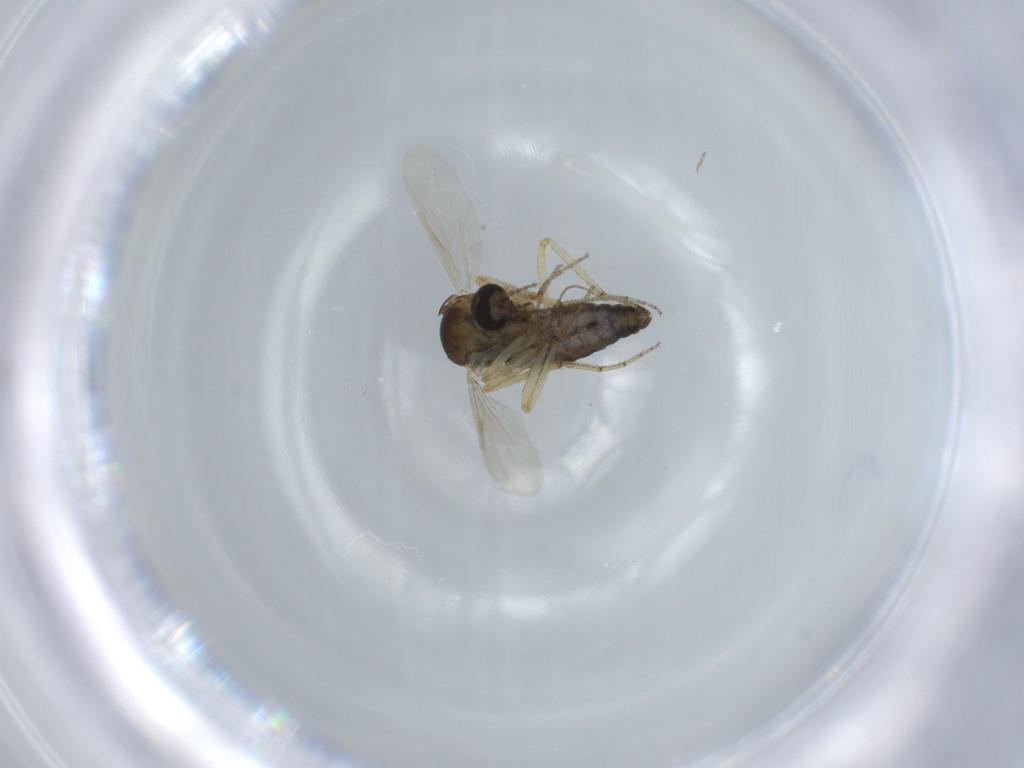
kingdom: Animalia
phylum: Arthropoda
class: Insecta
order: Diptera
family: Ceratopogonidae
